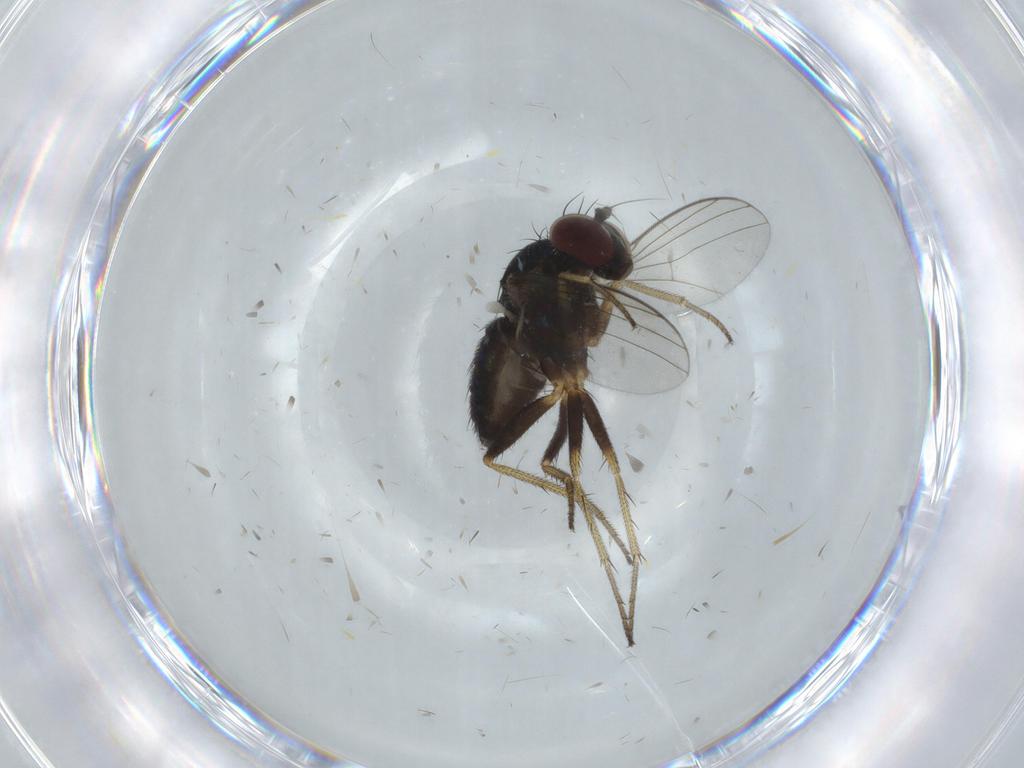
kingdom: Animalia
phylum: Arthropoda
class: Insecta
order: Diptera
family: Dolichopodidae
